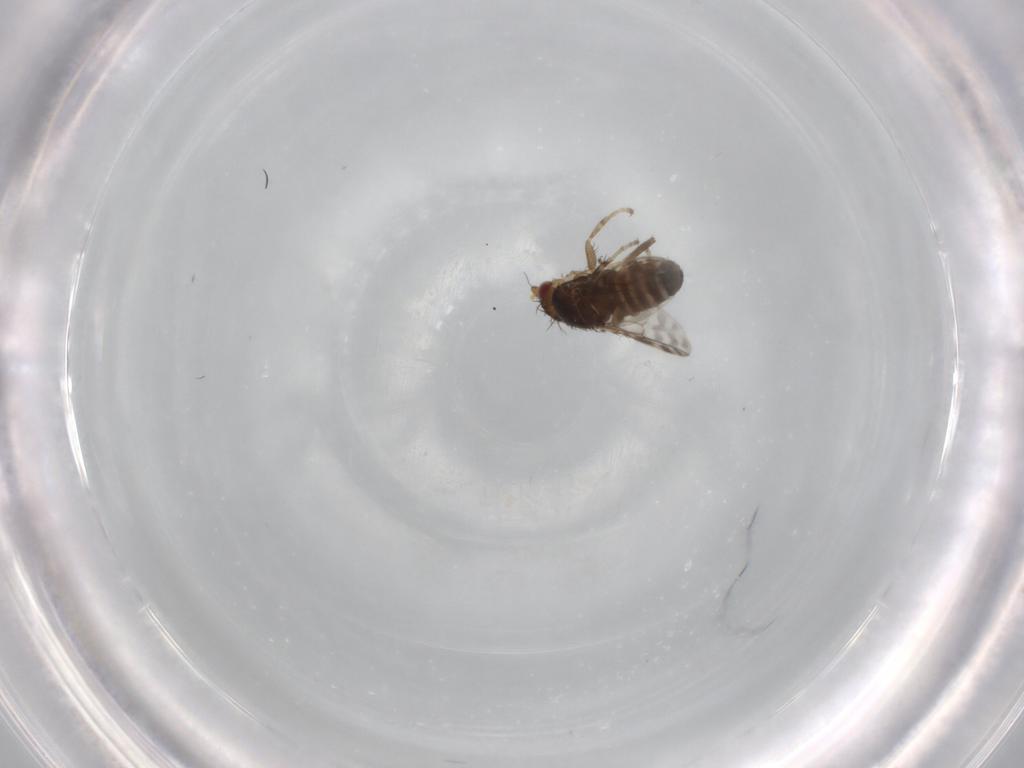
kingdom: Animalia
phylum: Arthropoda
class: Insecta
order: Diptera
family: Sphaeroceridae
